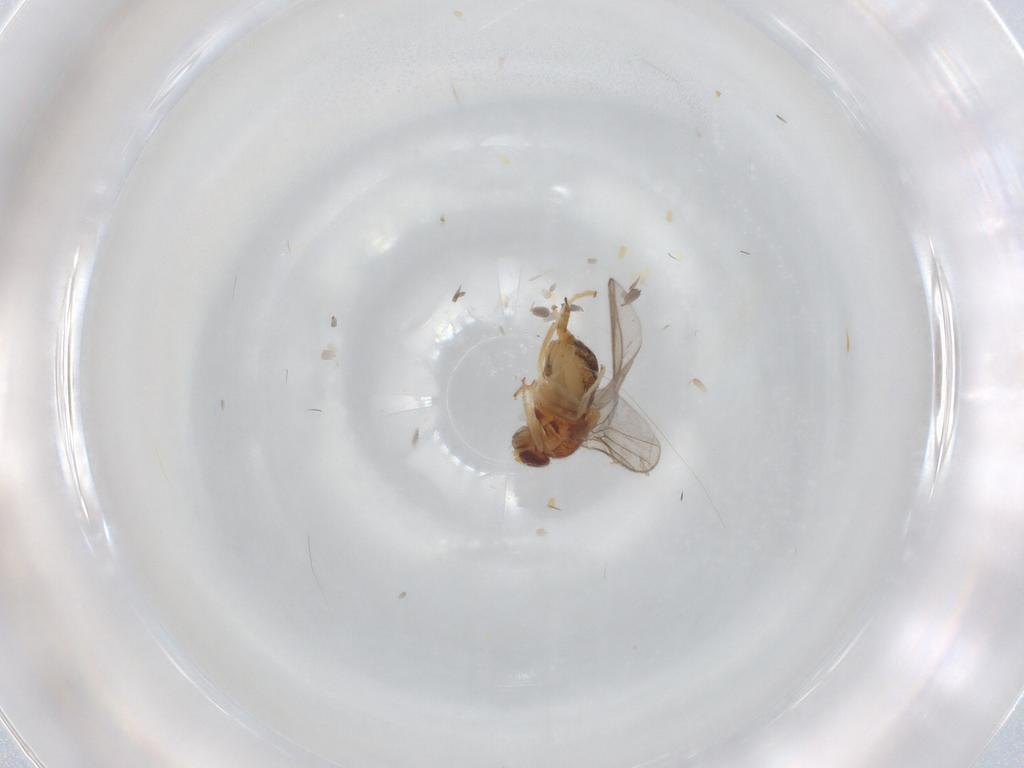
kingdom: Animalia
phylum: Arthropoda
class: Insecta
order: Diptera
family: Chloropidae
